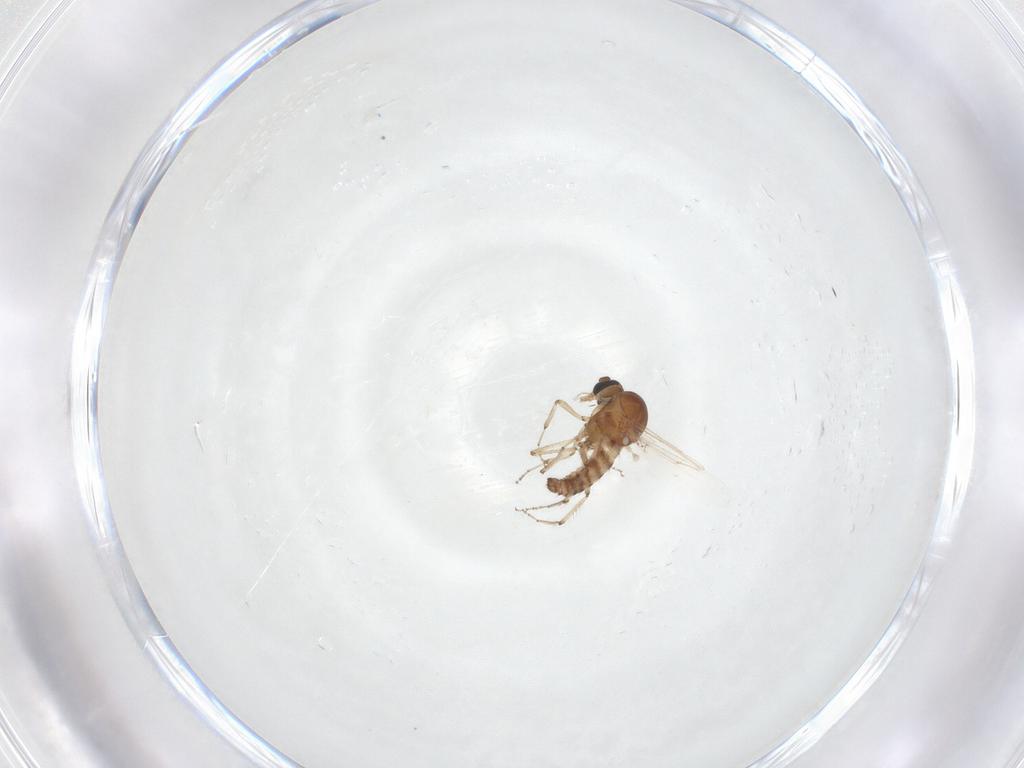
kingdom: Animalia
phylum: Arthropoda
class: Insecta
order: Diptera
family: Ceratopogonidae
